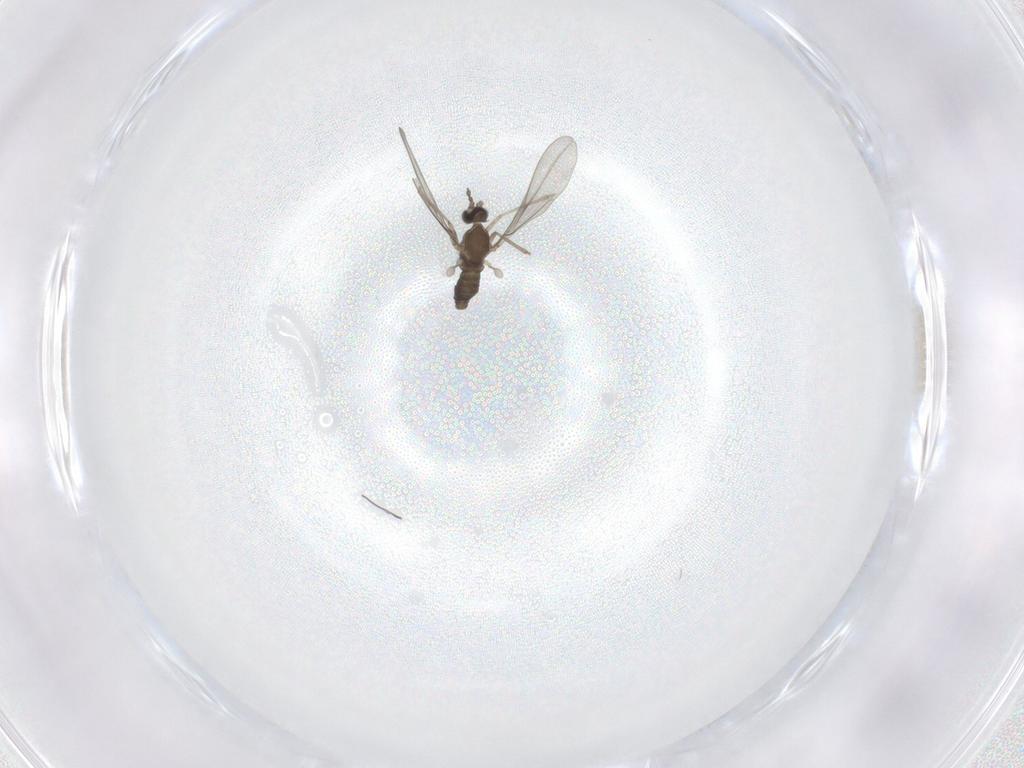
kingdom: Animalia
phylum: Arthropoda
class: Insecta
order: Diptera
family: Cecidomyiidae
